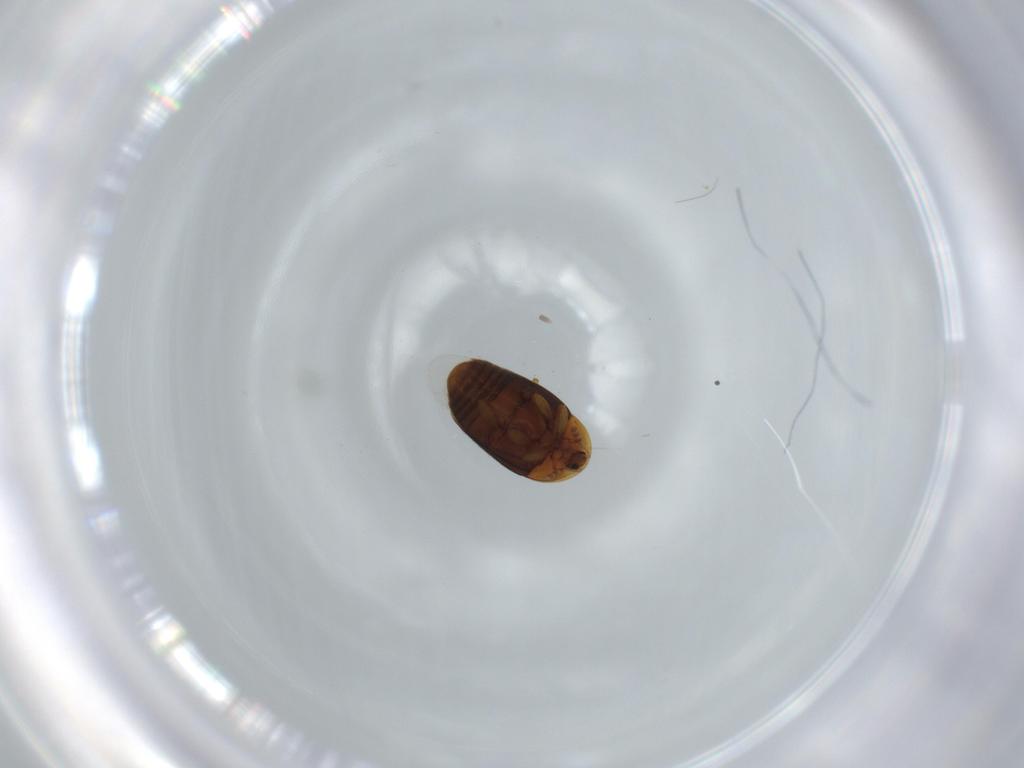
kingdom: Animalia
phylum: Arthropoda
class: Insecta
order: Coleoptera
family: Corylophidae
